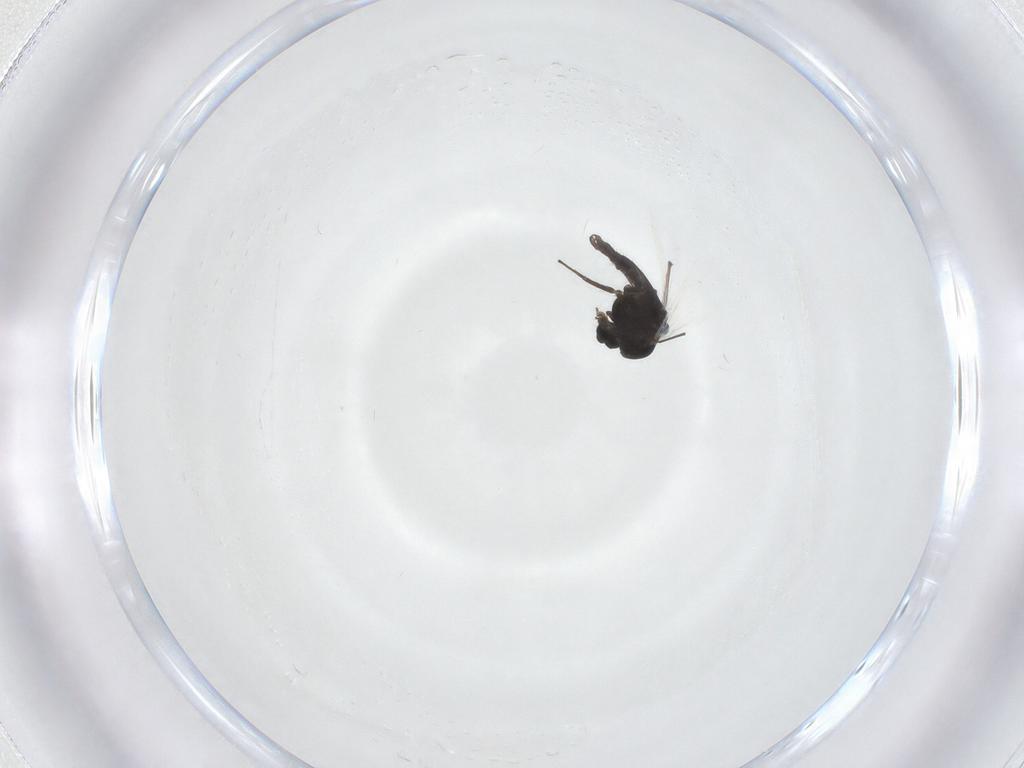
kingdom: Animalia
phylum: Arthropoda
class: Insecta
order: Diptera
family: Chironomidae
